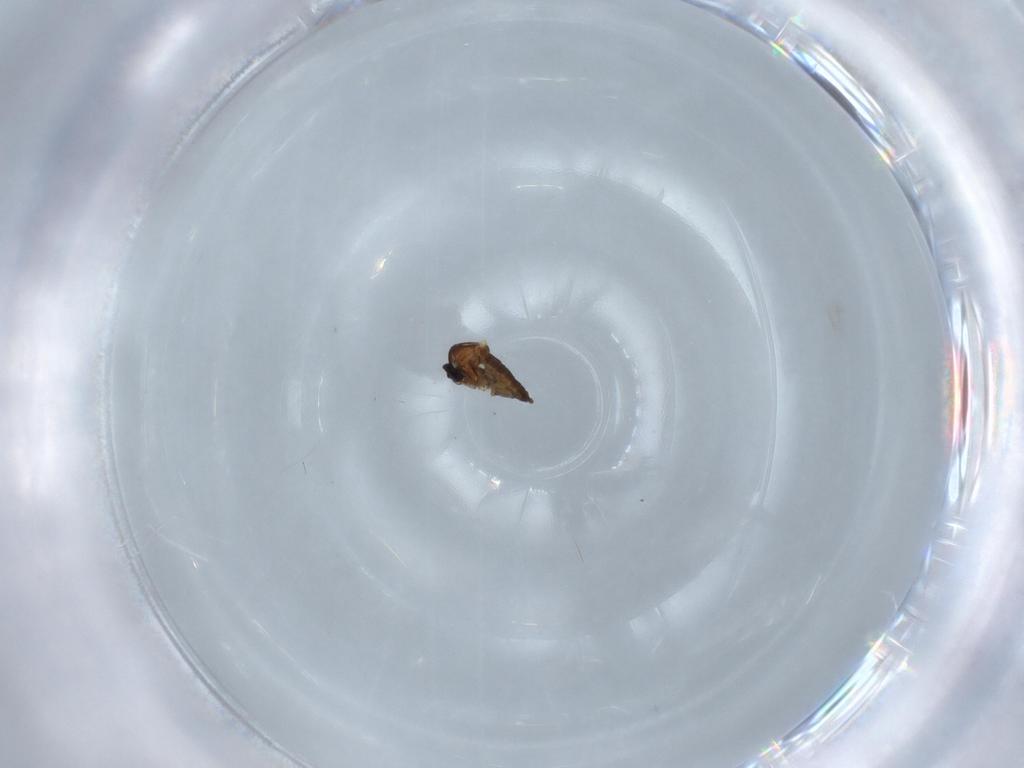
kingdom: Animalia
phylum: Arthropoda
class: Insecta
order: Diptera
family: Ceratopogonidae
